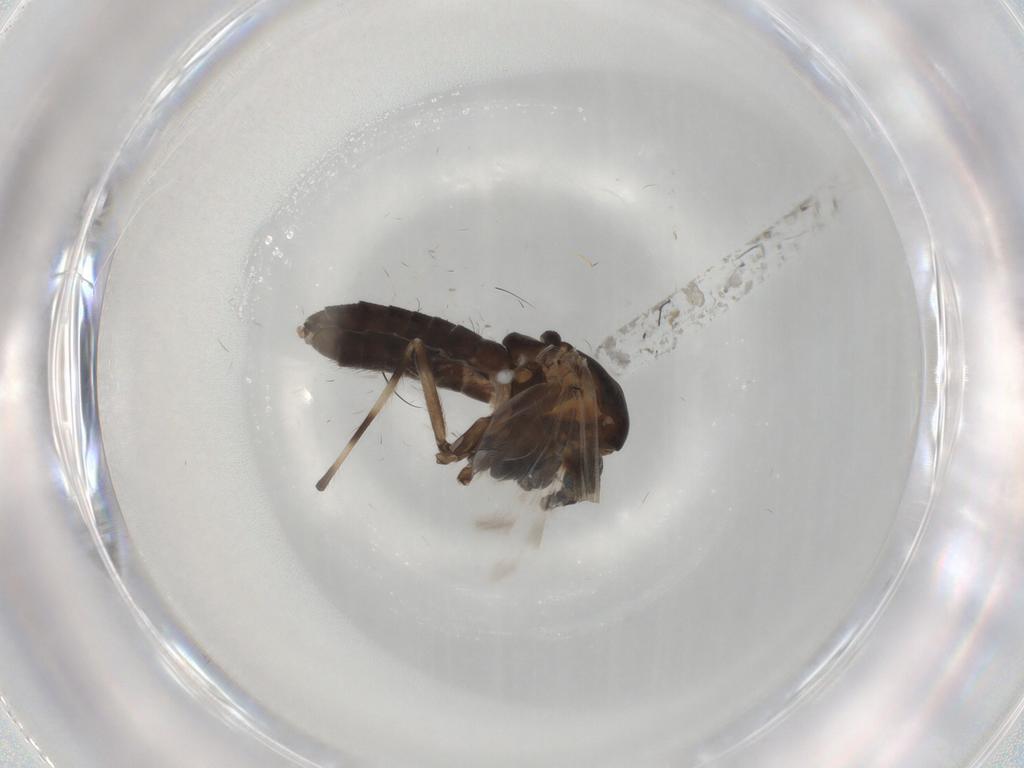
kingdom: Animalia
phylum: Arthropoda
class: Insecta
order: Diptera
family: Chironomidae
